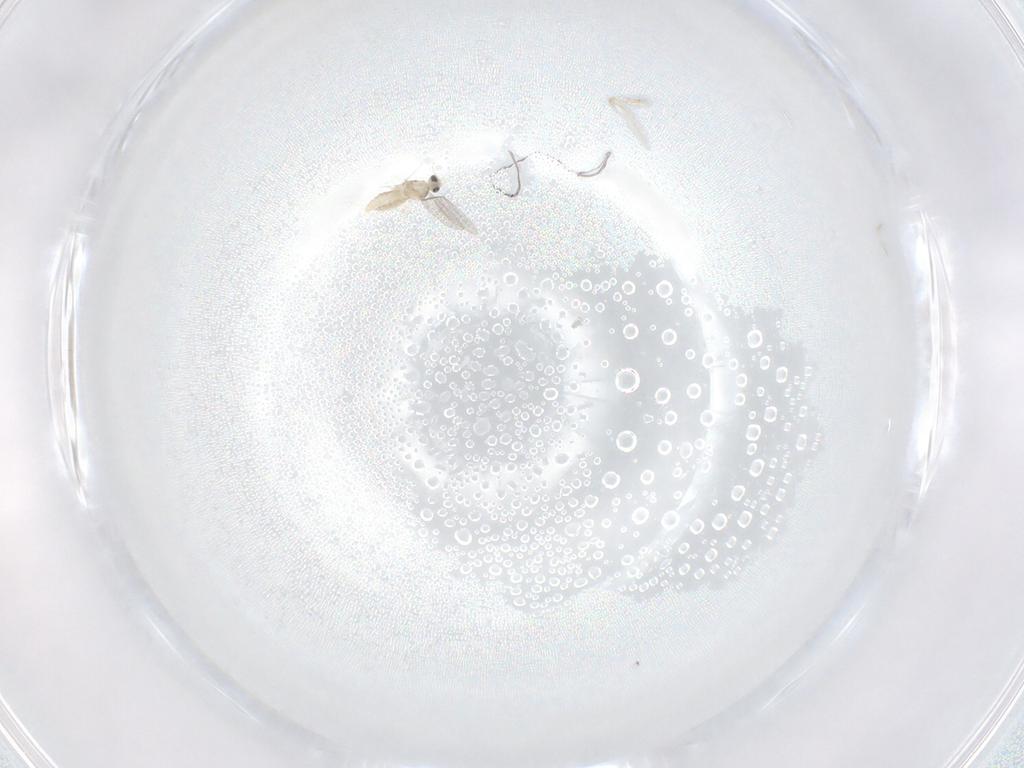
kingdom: Animalia
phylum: Arthropoda
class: Insecta
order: Diptera
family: Cecidomyiidae
